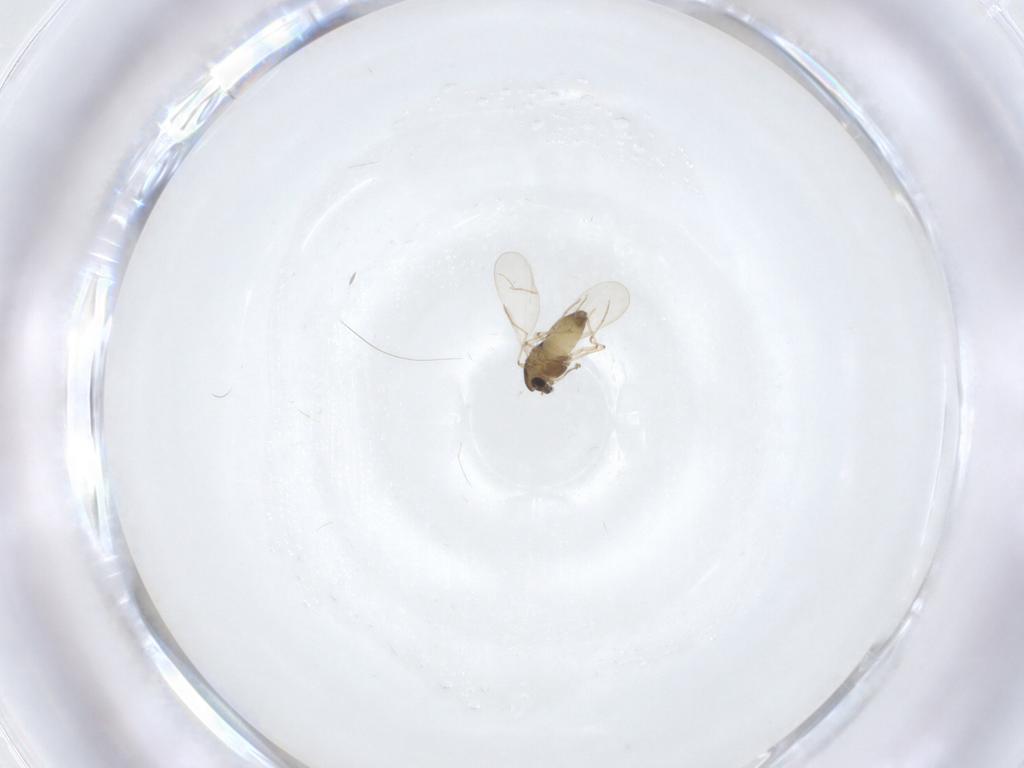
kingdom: Animalia
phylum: Arthropoda
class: Insecta
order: Diptera
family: Chironomidae
